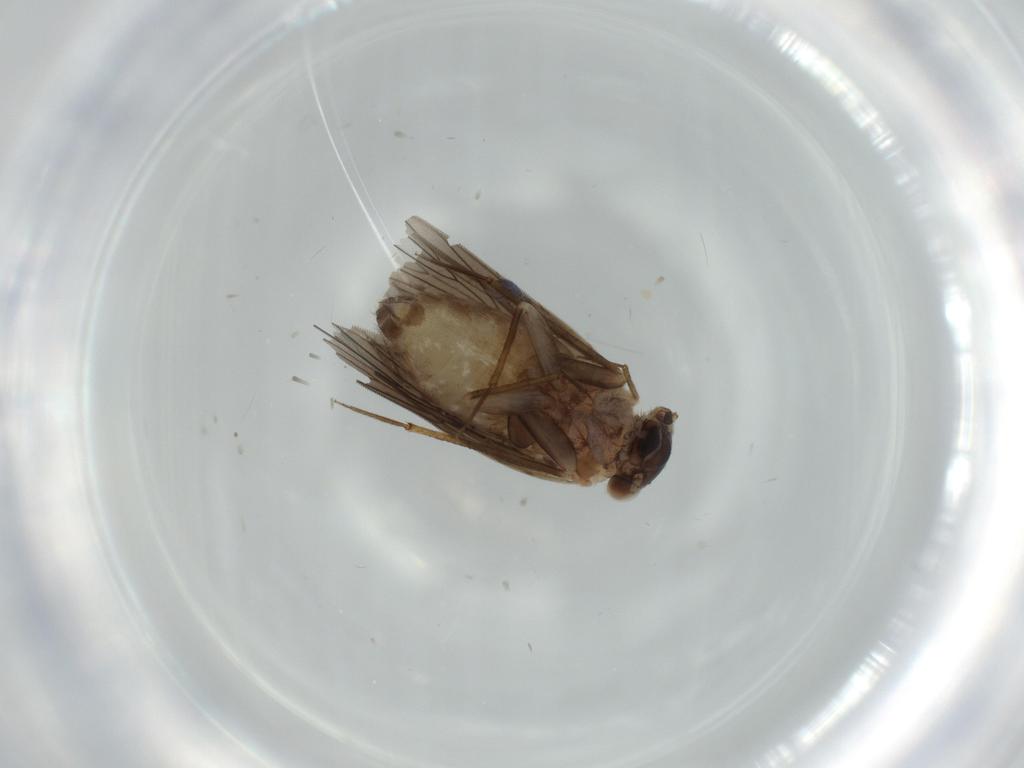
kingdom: Animalia
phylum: Arthropoda
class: Insecta
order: Psocodea
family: Lepidopsocidae
